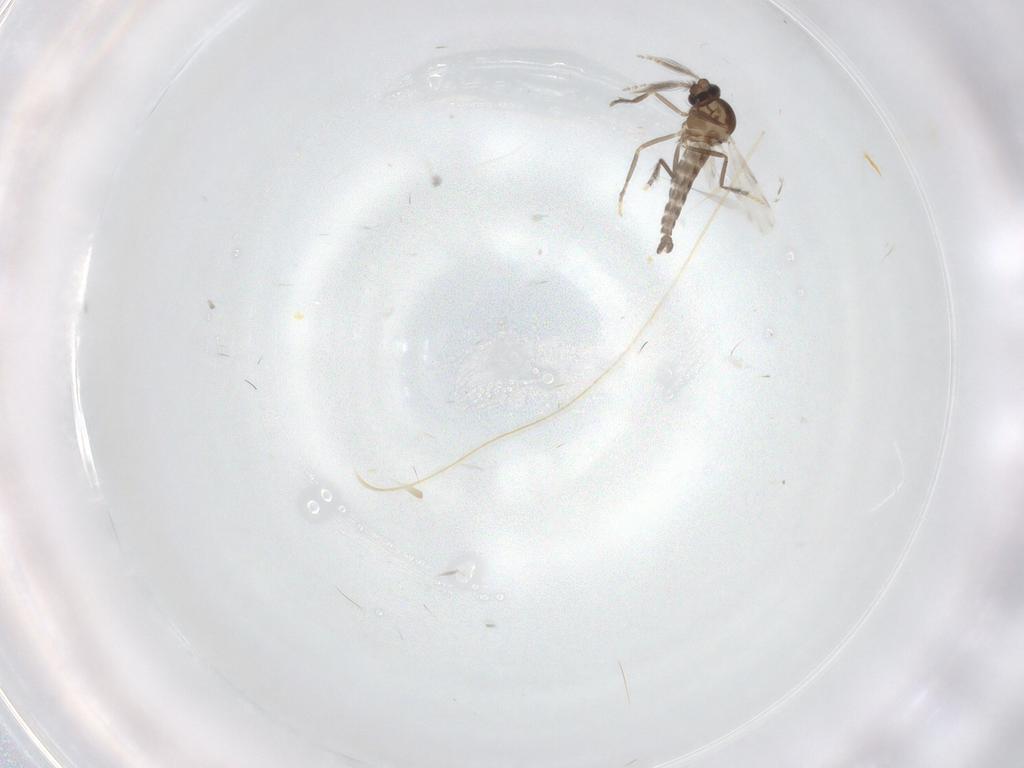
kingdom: Animalia
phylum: Arthropoda
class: Insecta
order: Diptera
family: Ceratopogonidae
